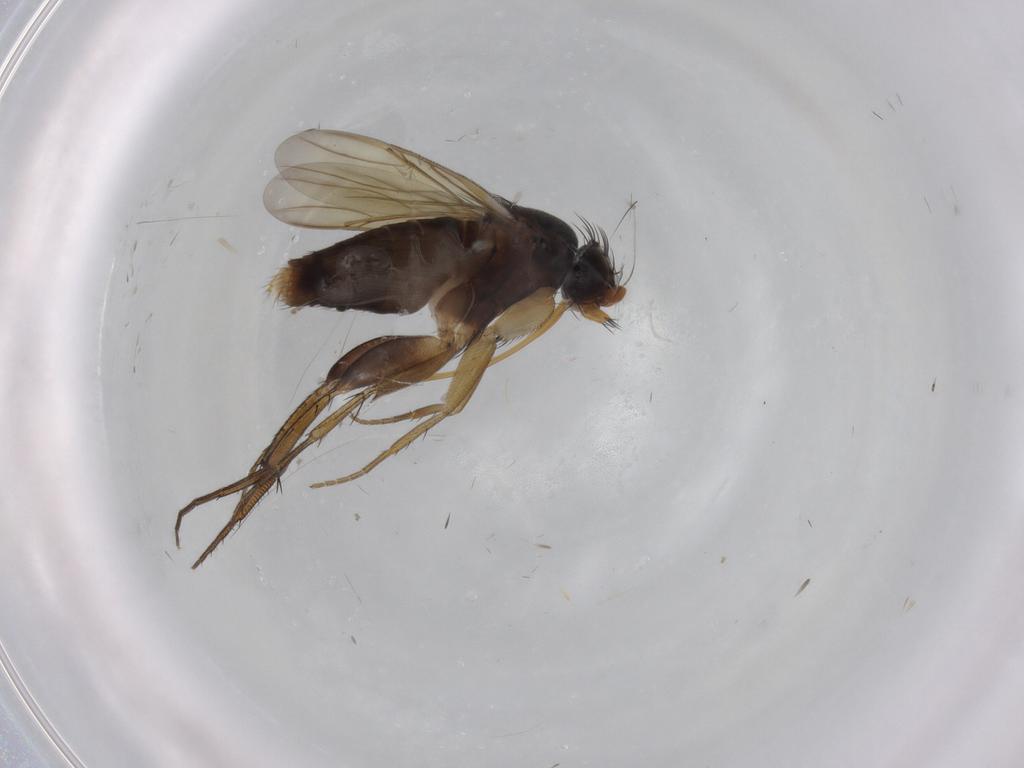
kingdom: Animalia
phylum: Arthropoda
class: Insecta
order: Diptera
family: Phoridae
